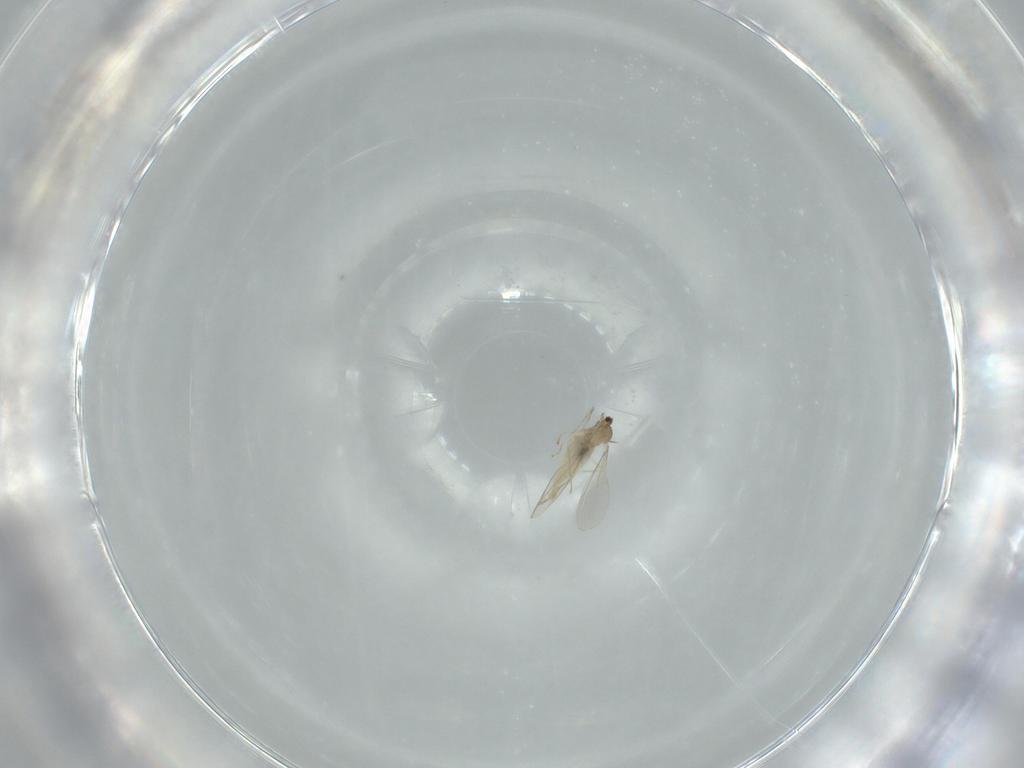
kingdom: Animalia
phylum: Arthropoda
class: Insecta
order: Diptera
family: Cecidomyiidae
